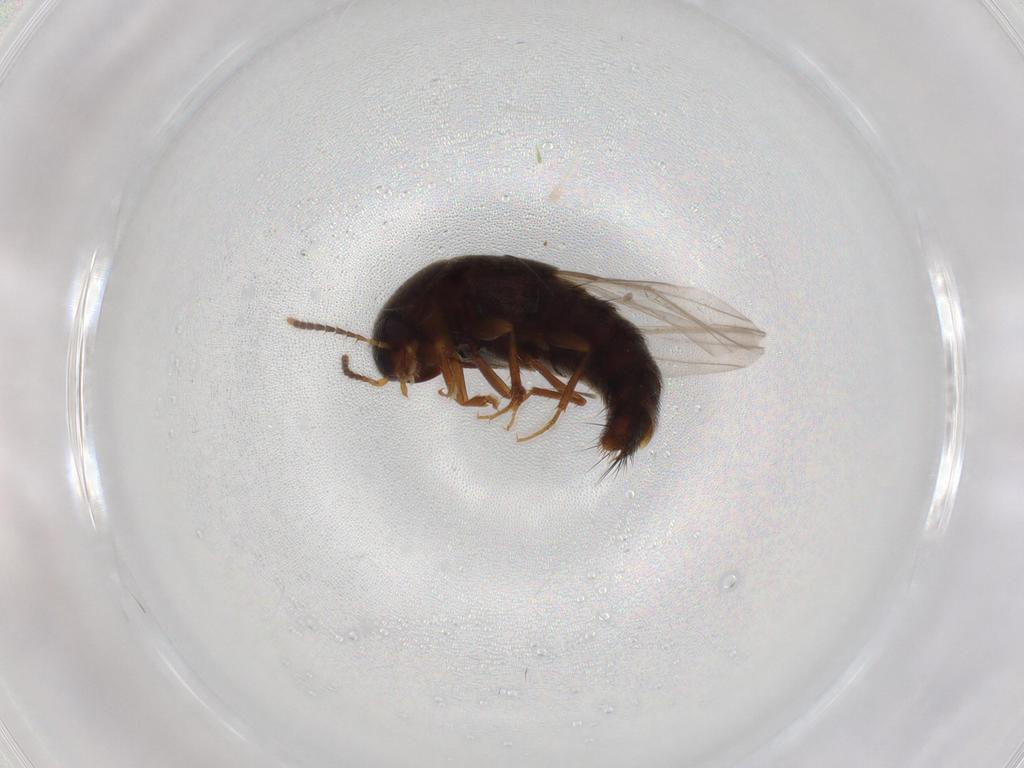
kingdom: Animalia
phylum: Arthropoda
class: Insecta
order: Coleoptera
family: Staphylinidae
